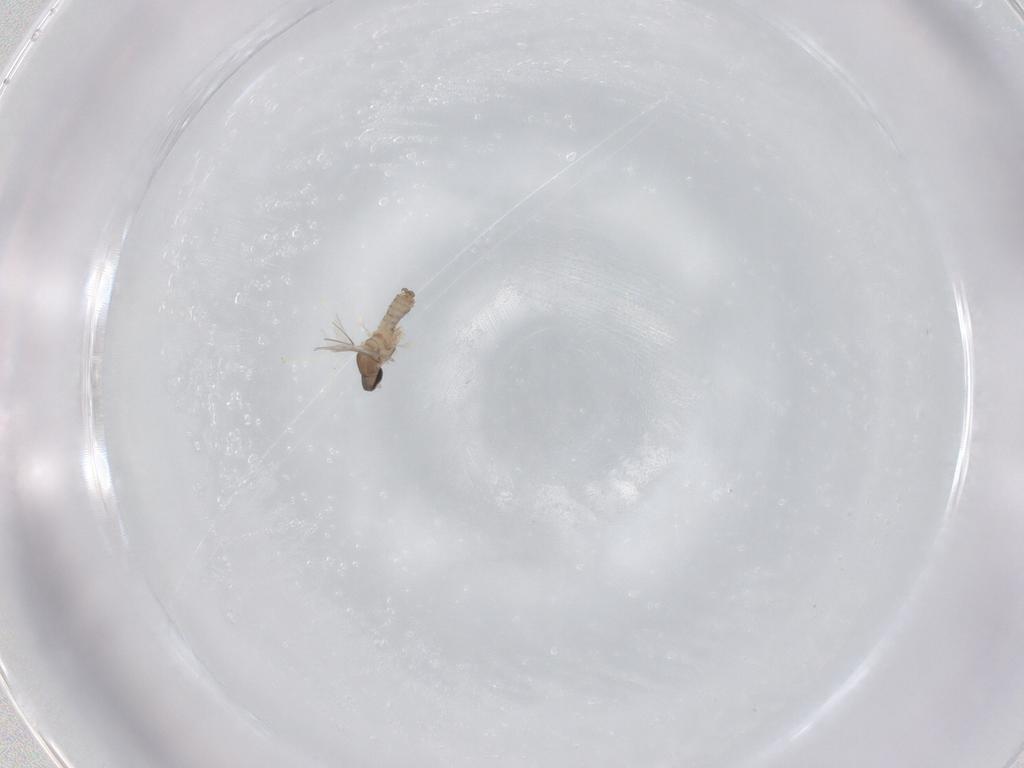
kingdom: Animalia
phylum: Arthropoda
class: Insecta
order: Diptera
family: Cecidomyiidae
